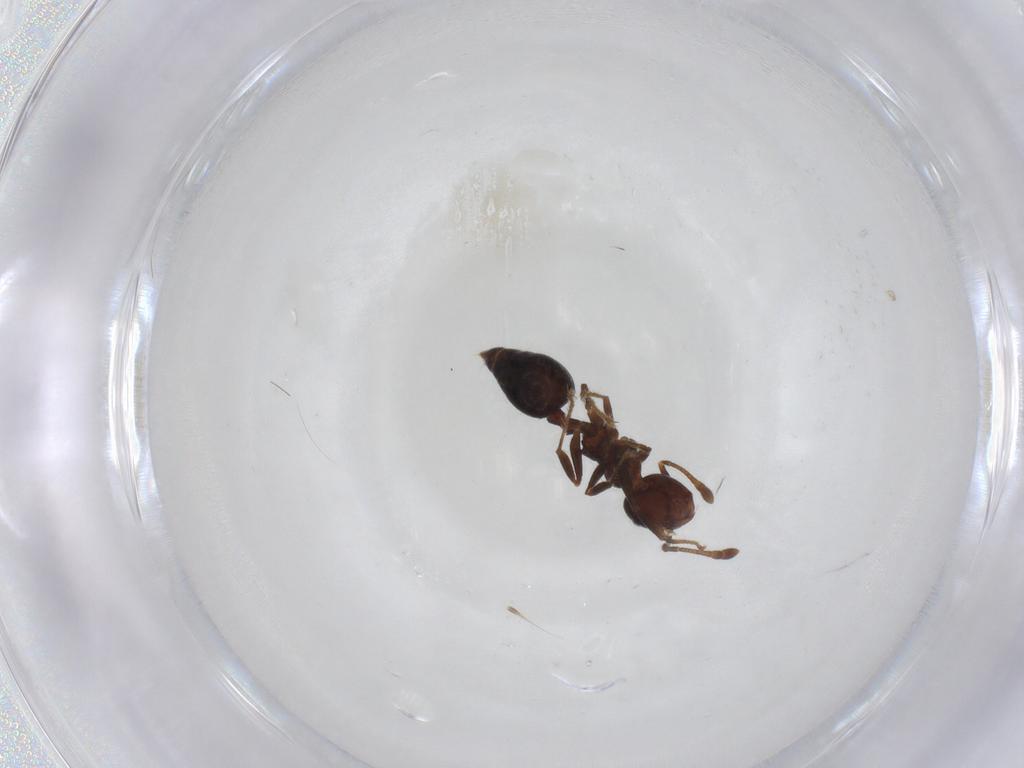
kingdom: Animalia
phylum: Arthropoda
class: Insecta
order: Hymenoptera
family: Formicidae
